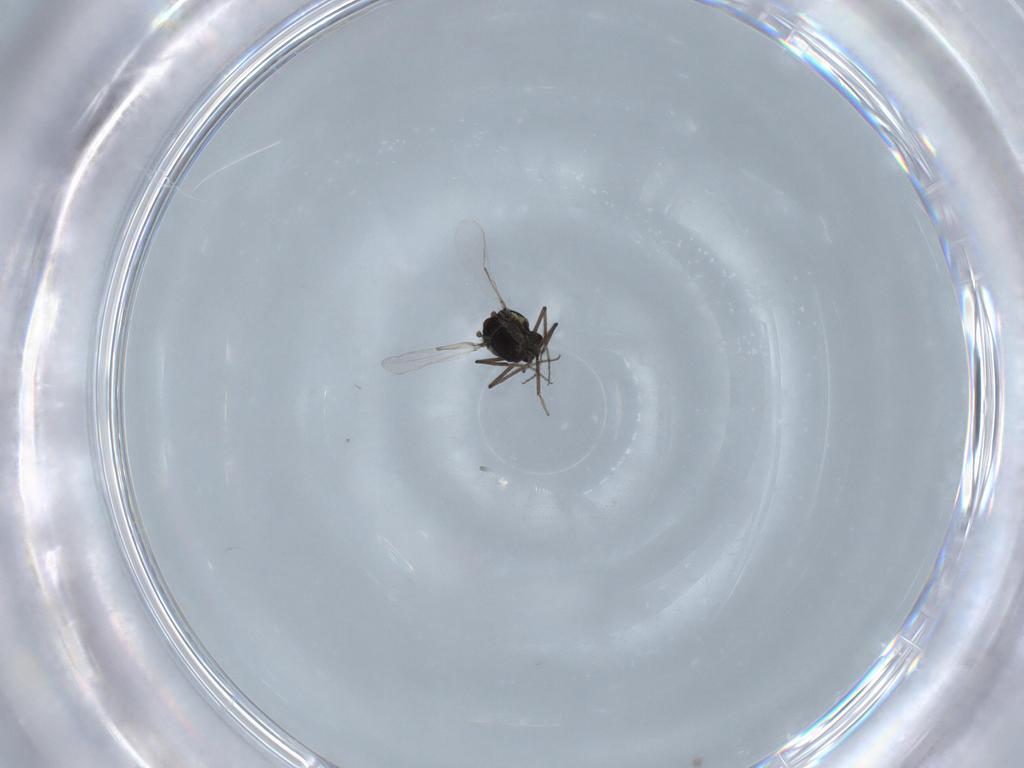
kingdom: Animalia
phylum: Arthropoda
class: Insecta
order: Diptera
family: Ceratopogonidae
